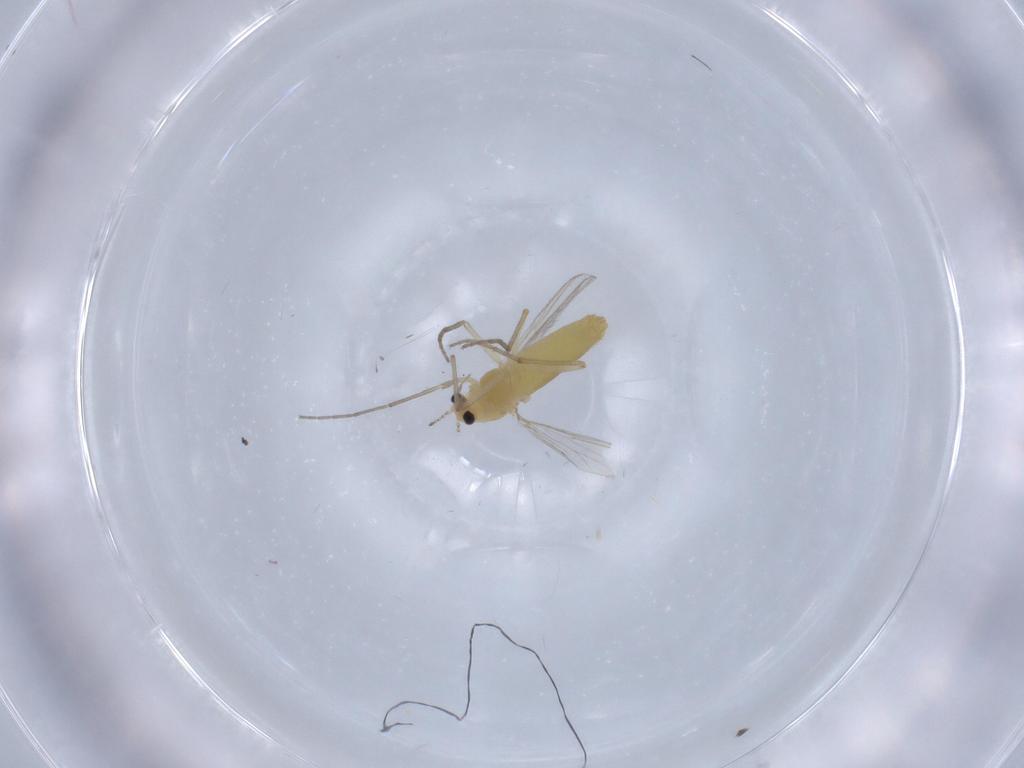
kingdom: Animalia
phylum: Arthropoda
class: Insecta
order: Diptera
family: Chironomidae
